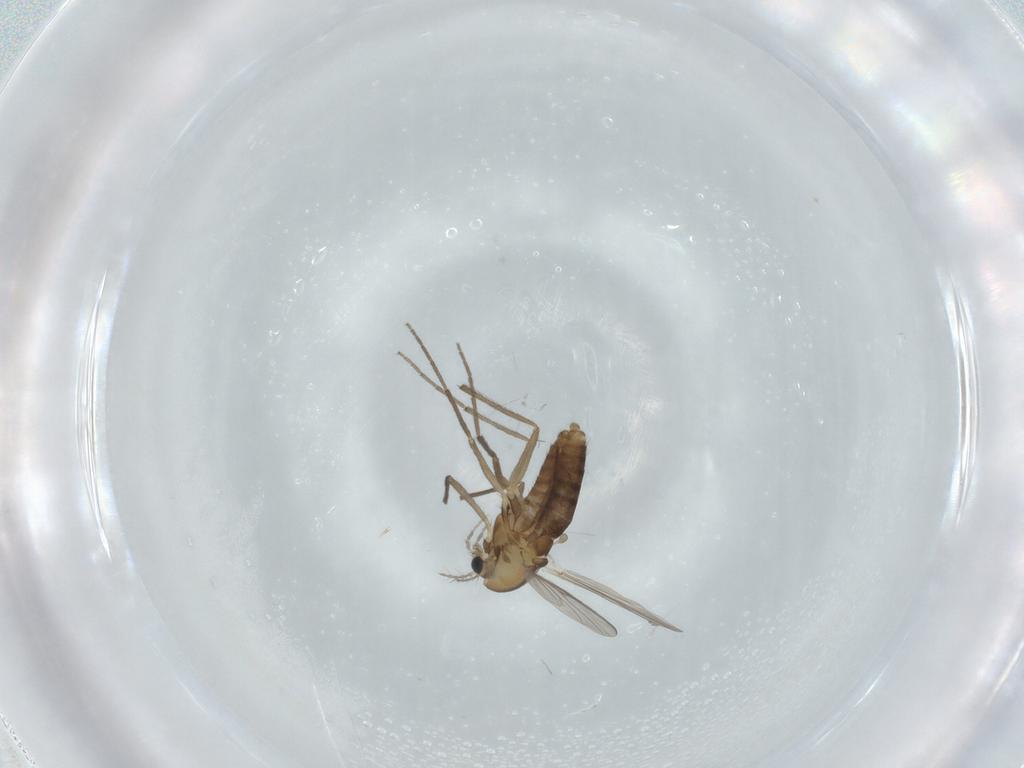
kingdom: Animalia
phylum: Arthropoda
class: Insecta
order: Diptera
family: Chironomidae
